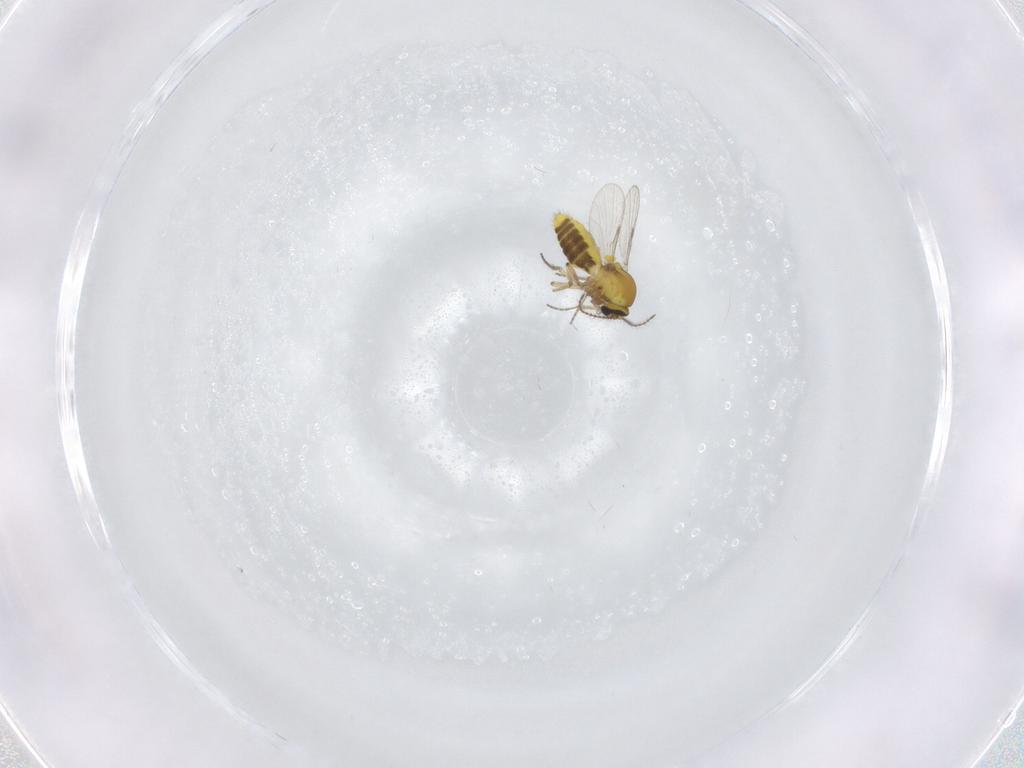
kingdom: Animalia
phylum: Arthropoda
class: Insecta
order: Diptera
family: Ceratopogonidae
